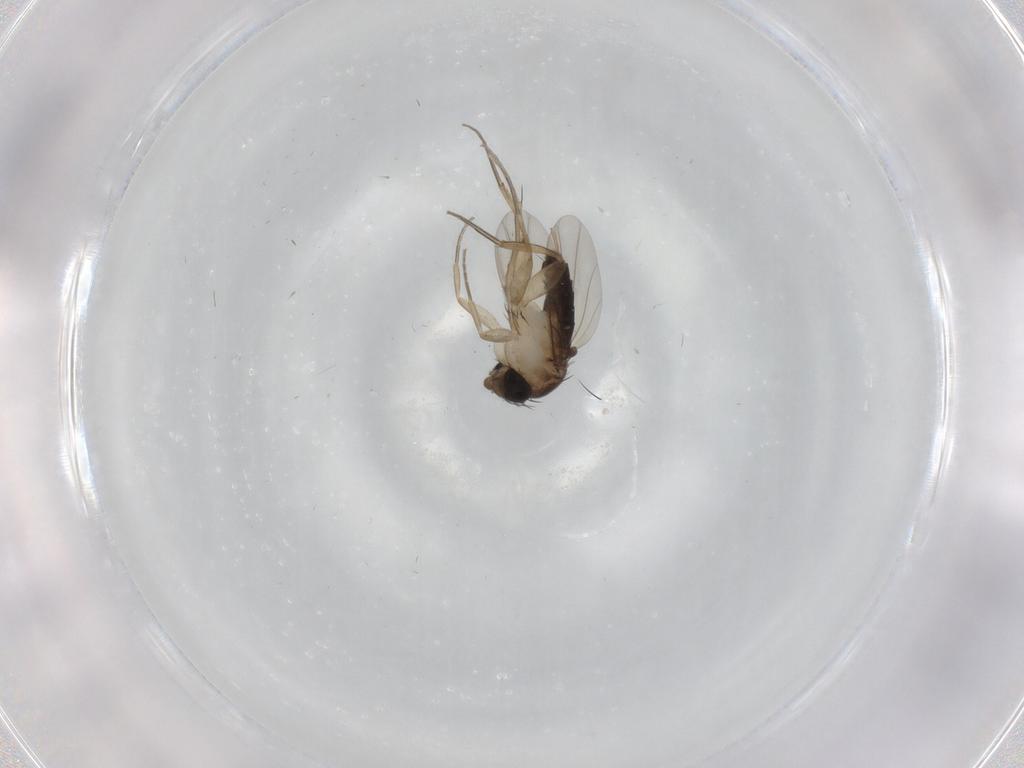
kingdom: Animalia
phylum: Arthropoda
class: Insecta
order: Diptera
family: Phoridae
